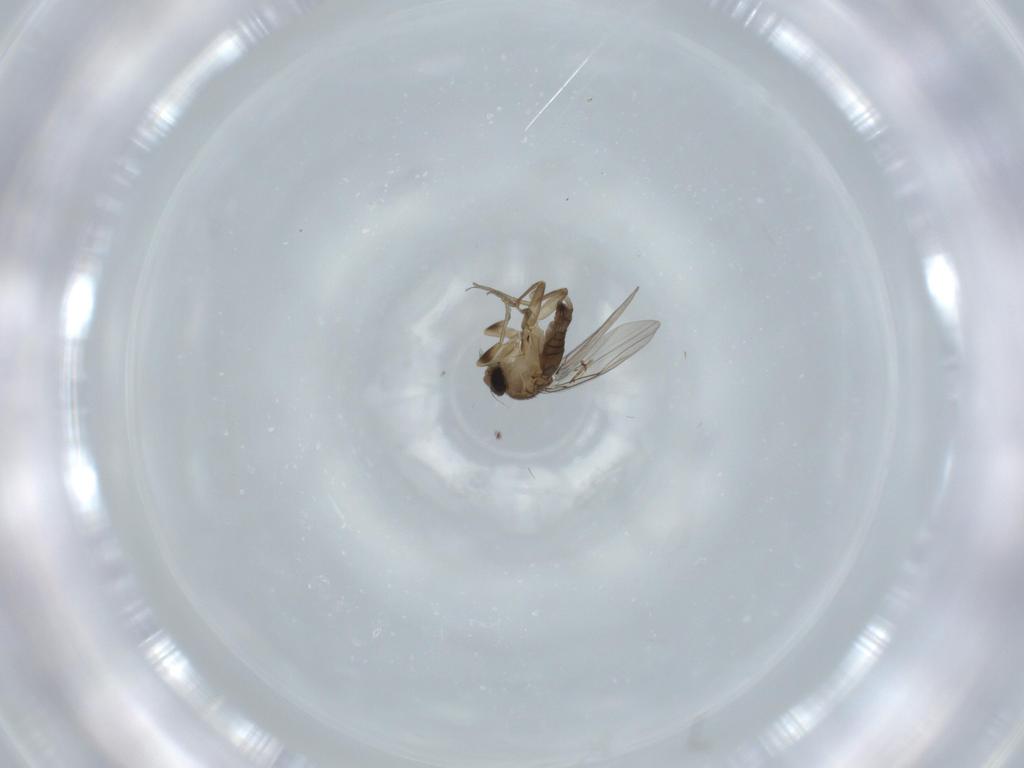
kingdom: Animalia
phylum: Arthropoda
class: Insecta
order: Diptera
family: Phoridae
